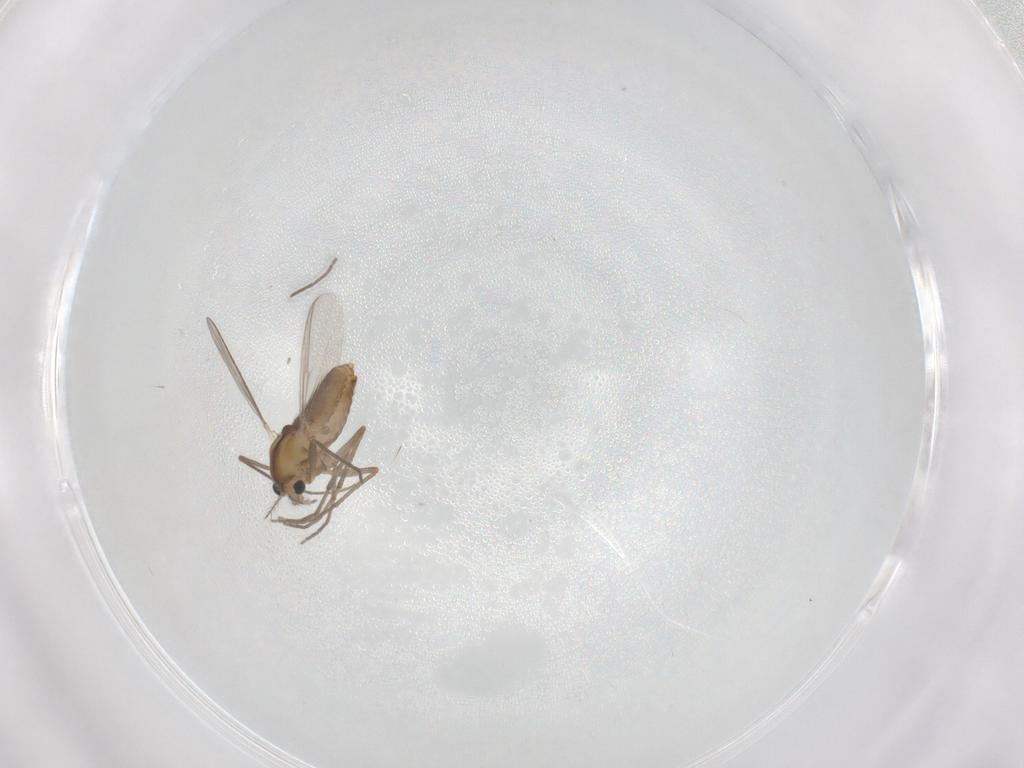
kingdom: Animalia
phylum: Arthropoda
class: Insecta
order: Diptera
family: Chironomidae
